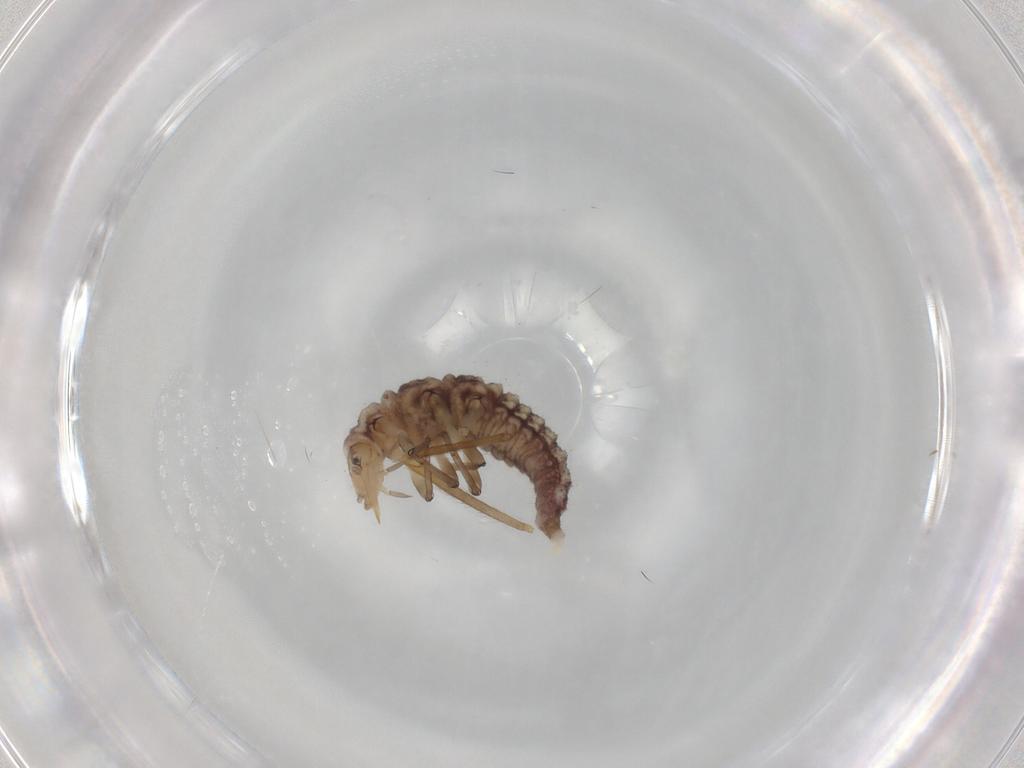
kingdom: Animalia
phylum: Arthropoda
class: Insecta
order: Neuroptera
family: Hemerobiidae
